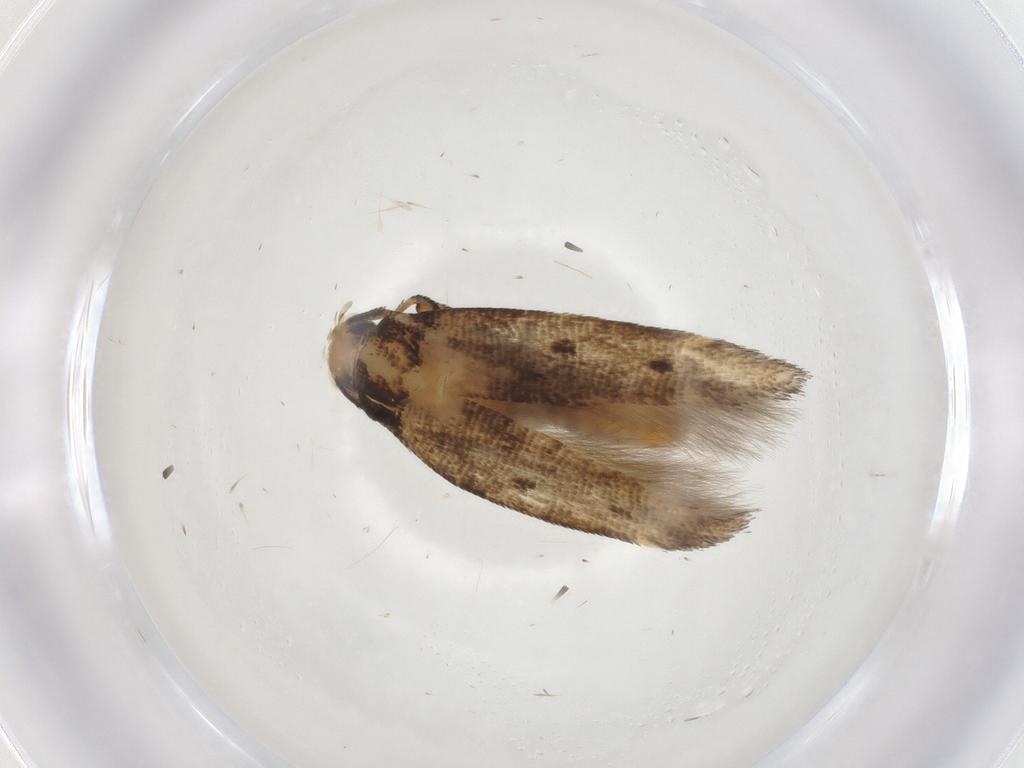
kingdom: Animalia
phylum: Arthropoda
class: Insecta
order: Lepidoptera
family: Gelechiidae
